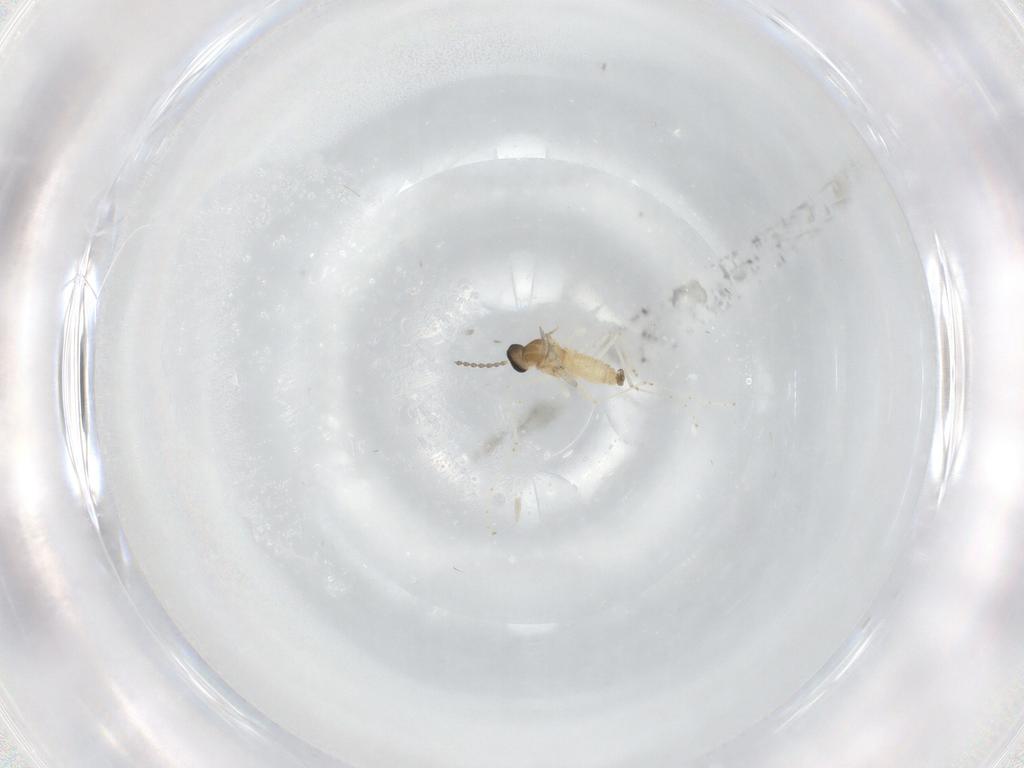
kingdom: Animalia
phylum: Arthropoda
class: Insecta
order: Diptera
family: Cecidomyiidae
